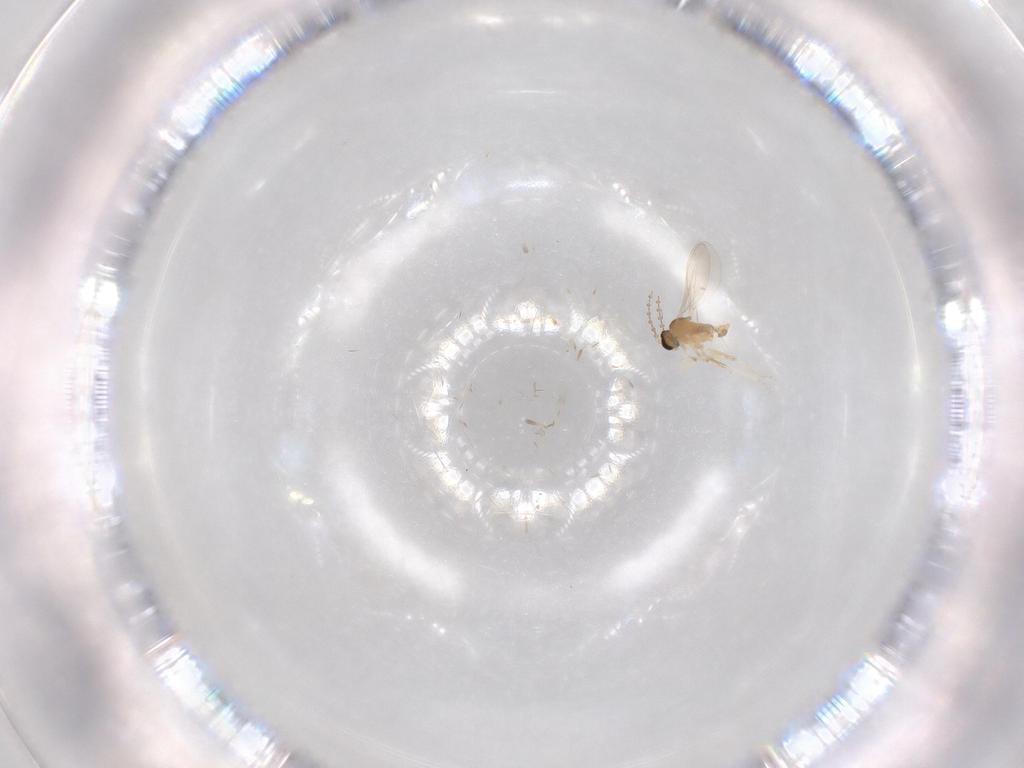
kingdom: Animalia
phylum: Arthropoda
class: Insecta
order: Diptera
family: Cecidomyiidae
